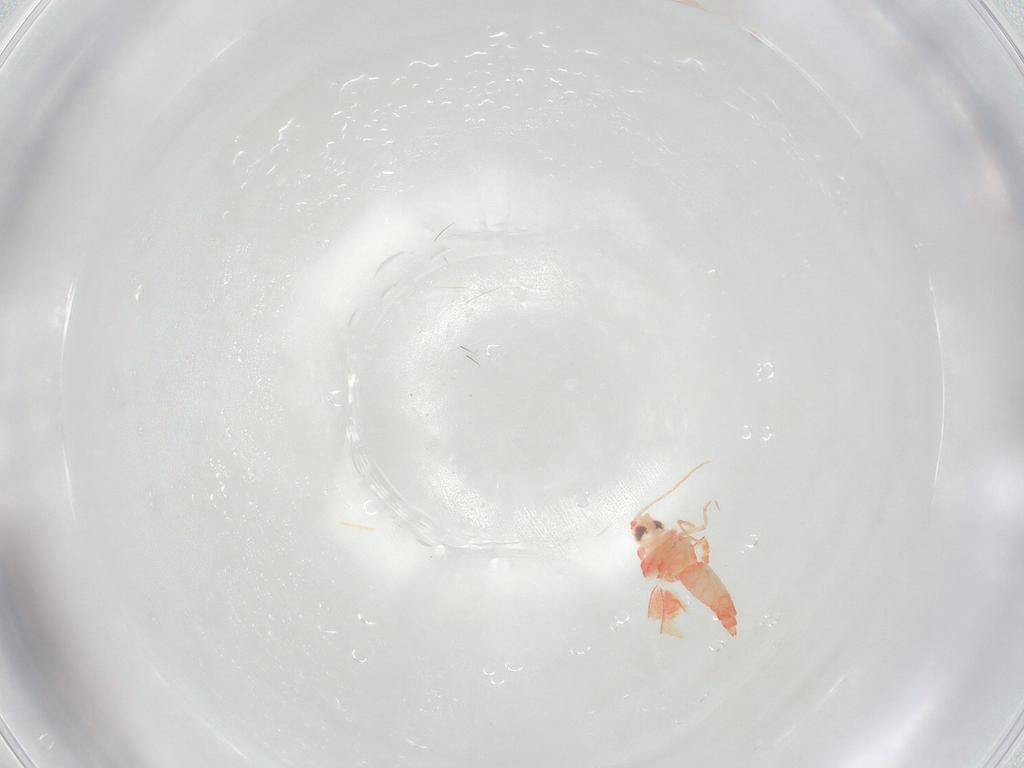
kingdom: Animalia
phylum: Arthropoda
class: Insecta
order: Hemiptera
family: Aleyrodidae
